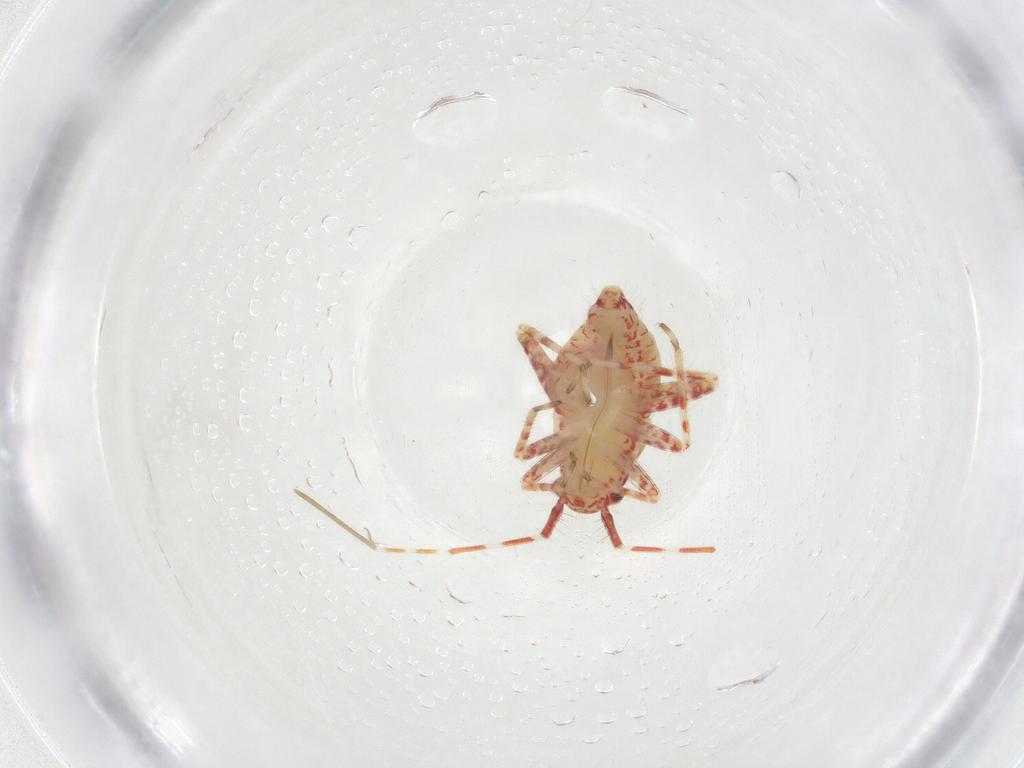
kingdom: Animalia
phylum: Arthropoda
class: Insecta
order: Hemiptera
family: Miridae
